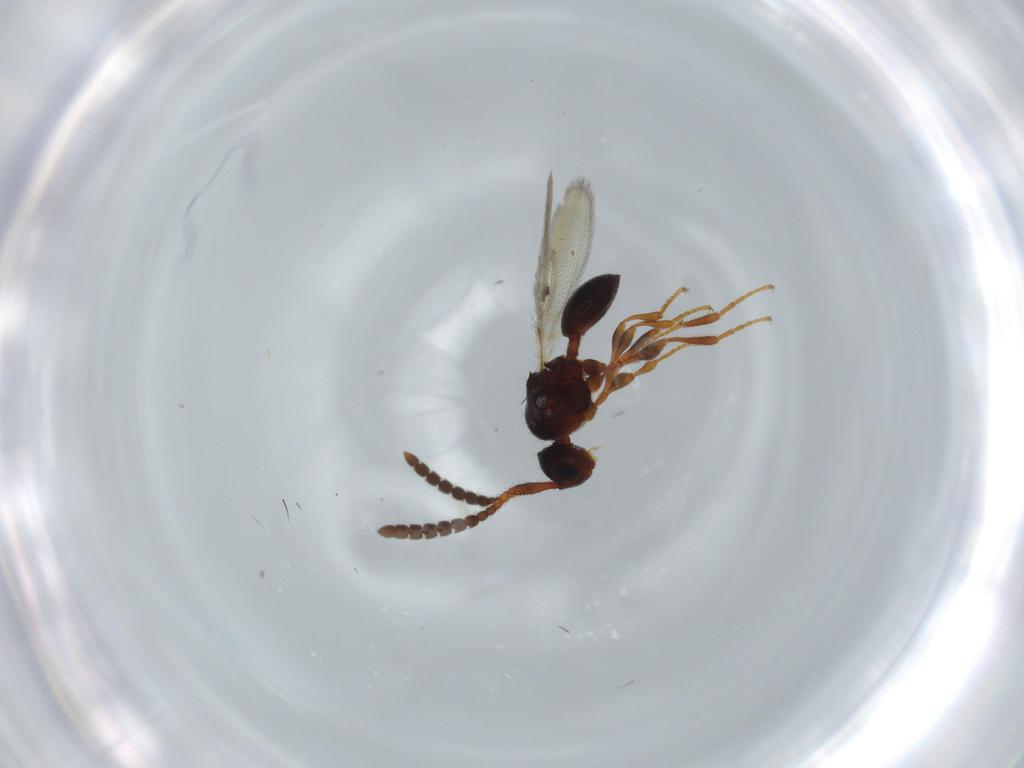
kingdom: Animalia
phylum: Arthropoda
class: Insecta
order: Hymenoptera
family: Diapriidae
